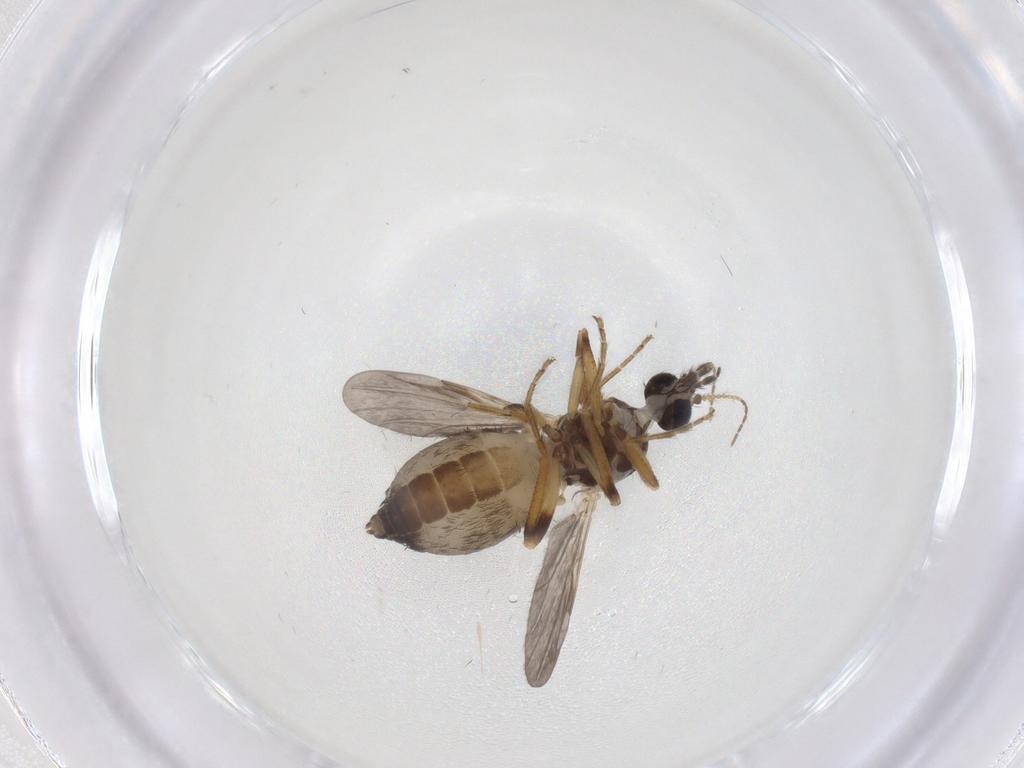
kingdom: Animalia
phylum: Arthropoda
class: Insecta
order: Diptera
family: Ceratopogonidae
